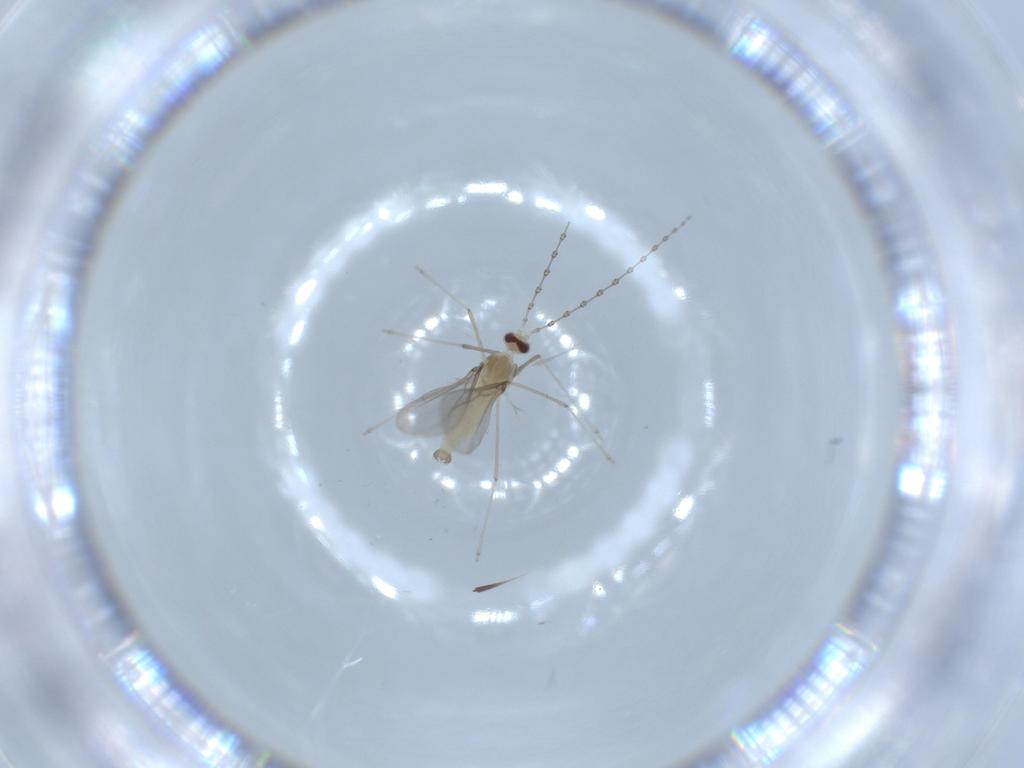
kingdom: Animalia
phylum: Arthropoda
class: Insecta
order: Diptera
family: Cecidomyiidae
